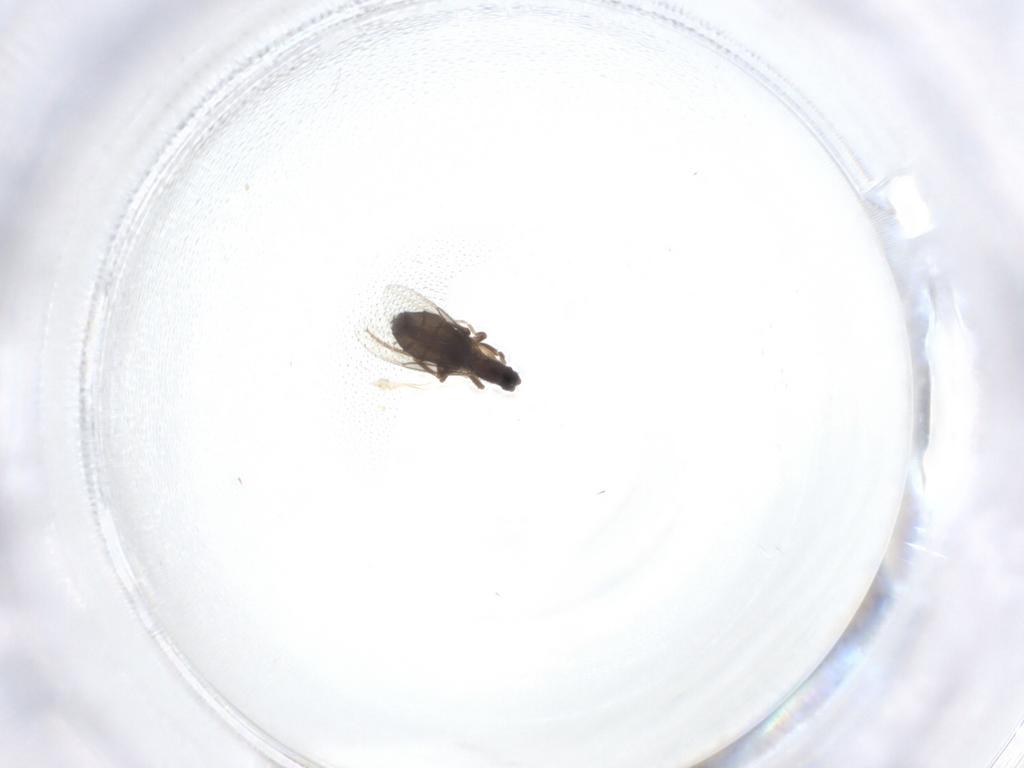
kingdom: Animalia
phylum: Arthropoda
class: Insecta
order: Diptera
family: Phoridae
